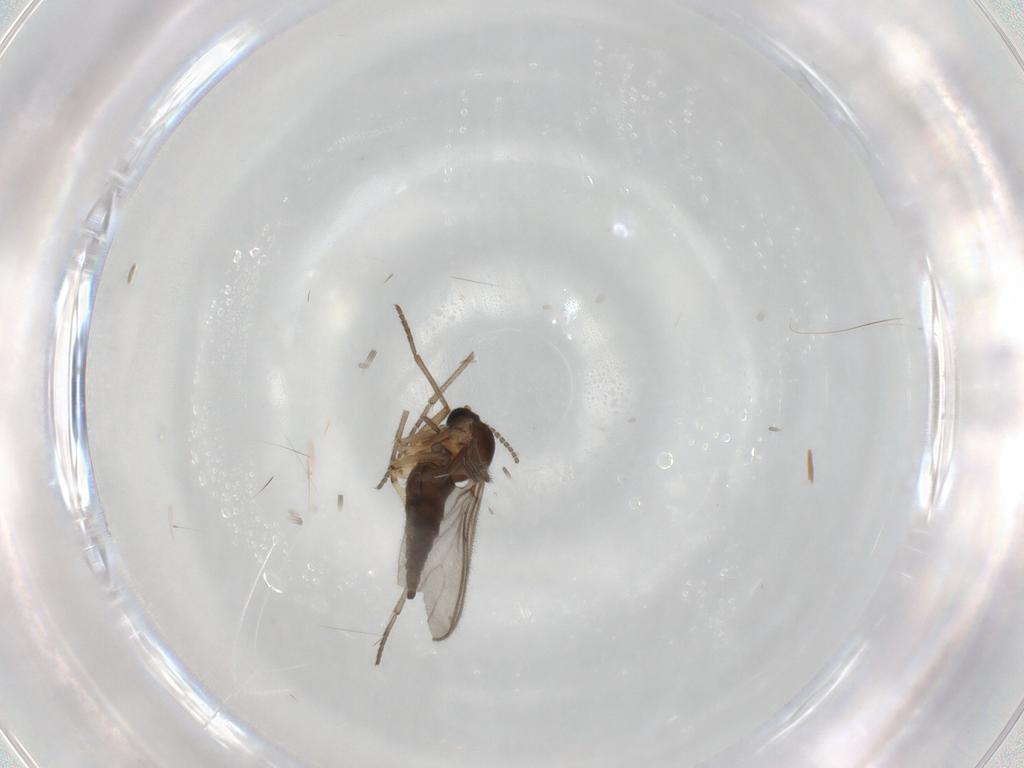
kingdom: Animalia
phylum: Arthropoda
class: Insecta
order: Diptera
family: Sciaridae
